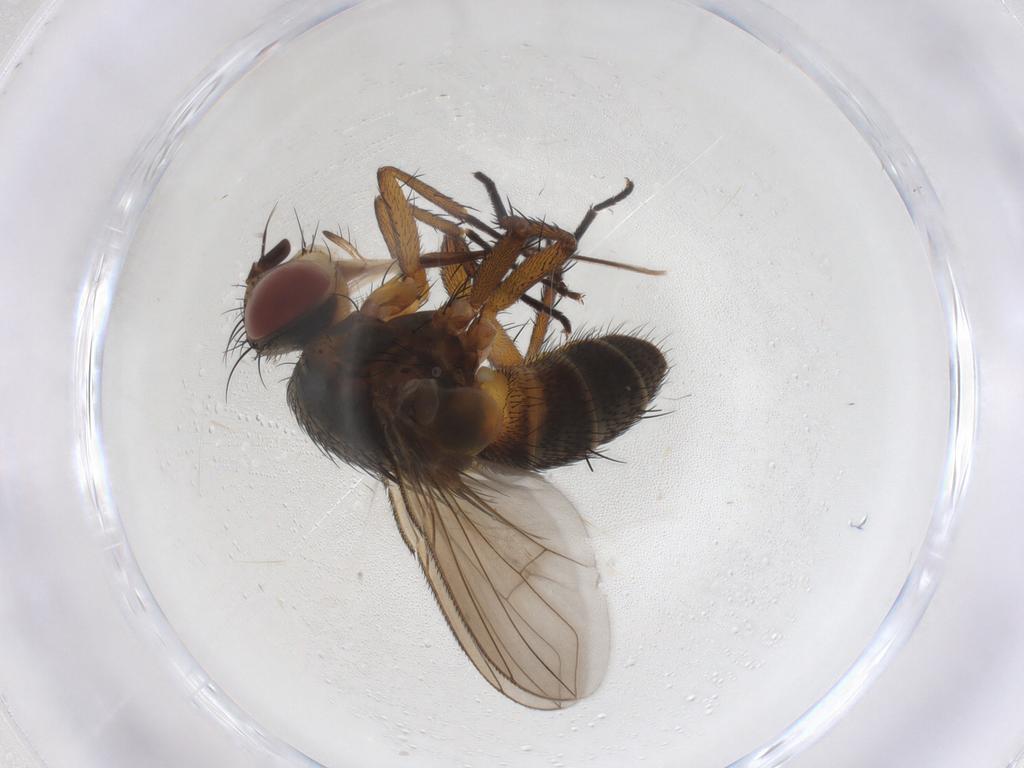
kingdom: Animalia
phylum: Arthropoda
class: Insecta
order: Diptera
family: Tachinidae
